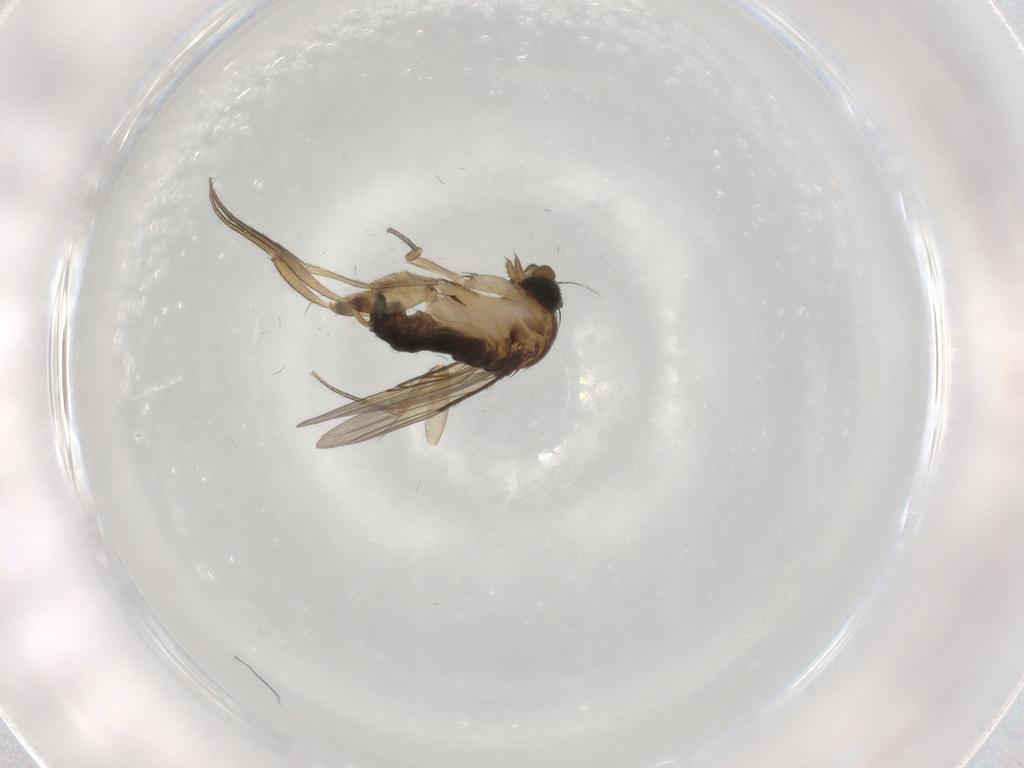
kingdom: Animalia
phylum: Arthropoda
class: Insecta
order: Diptera
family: Phoridae
